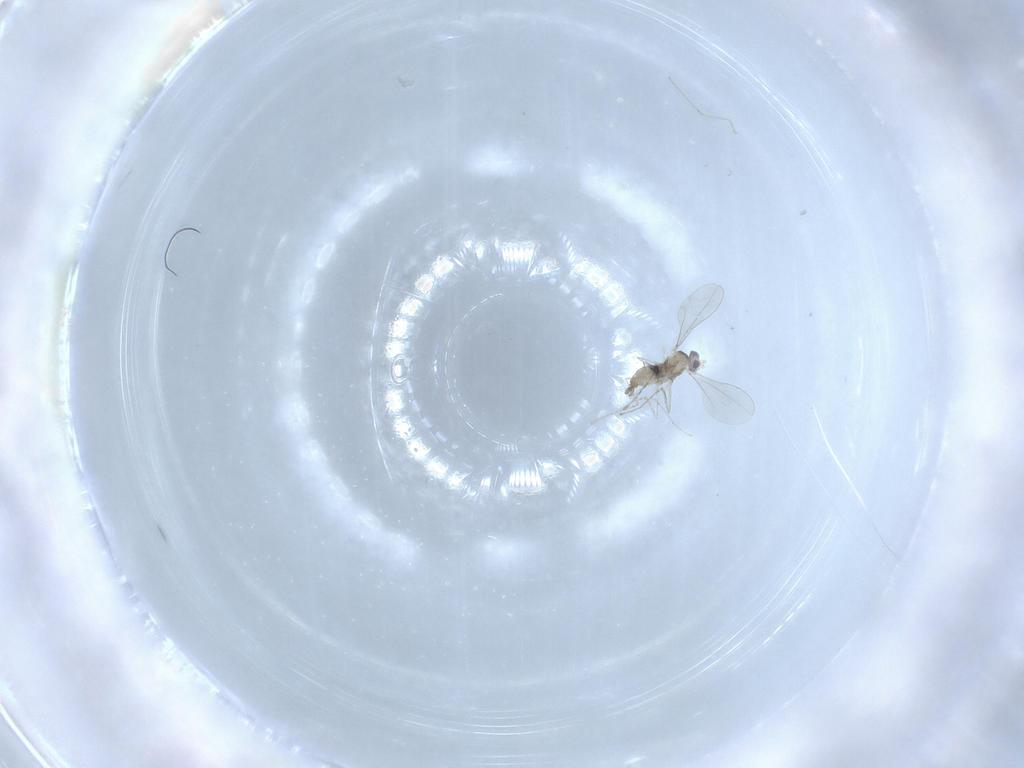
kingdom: Animalia
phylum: Arthropoda
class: Insecta
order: Diptera
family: Cecidomyiidae
